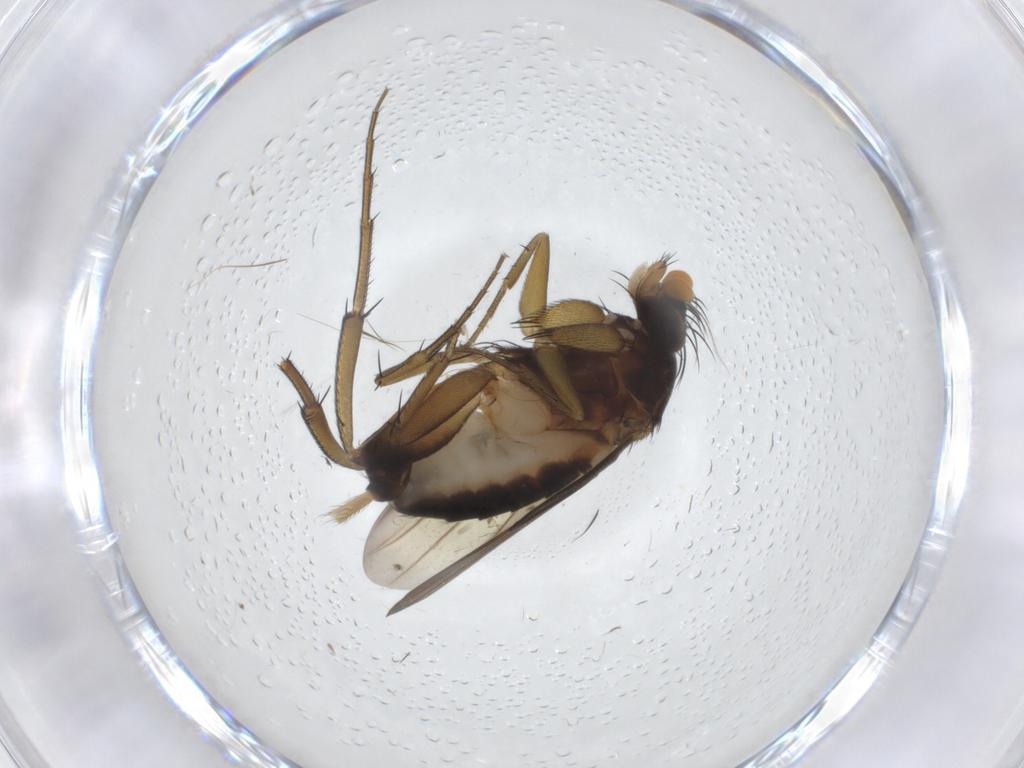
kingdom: Animalia
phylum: Arthropoda
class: Insecta
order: Diptera
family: Phoridae
